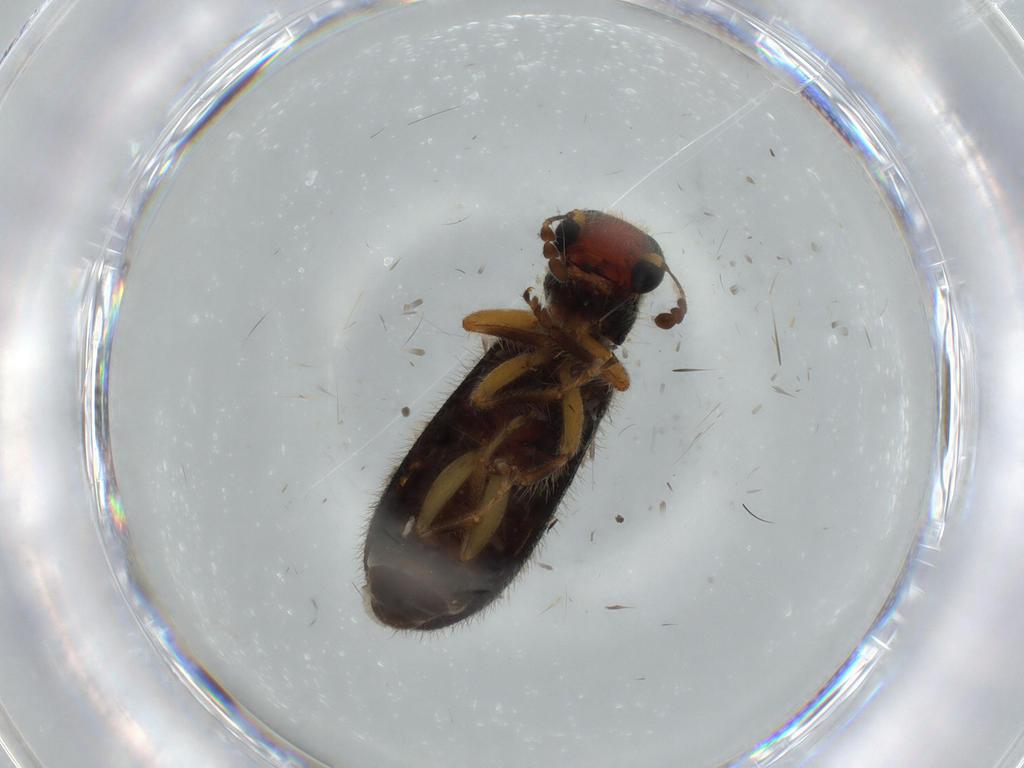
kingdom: Animalia
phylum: Arthropoda
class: Insecta
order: Coleoptera
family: Cleridae
